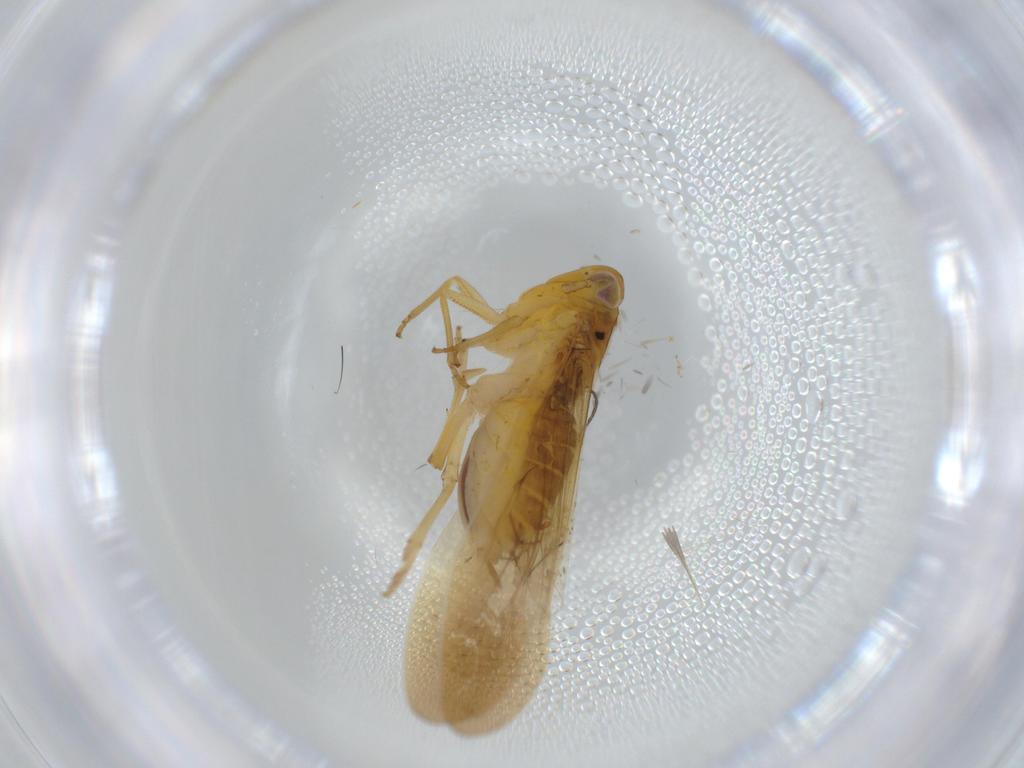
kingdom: Animalia
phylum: Arthropoda
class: Insecta
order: Hemiptera
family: Delphacidae
